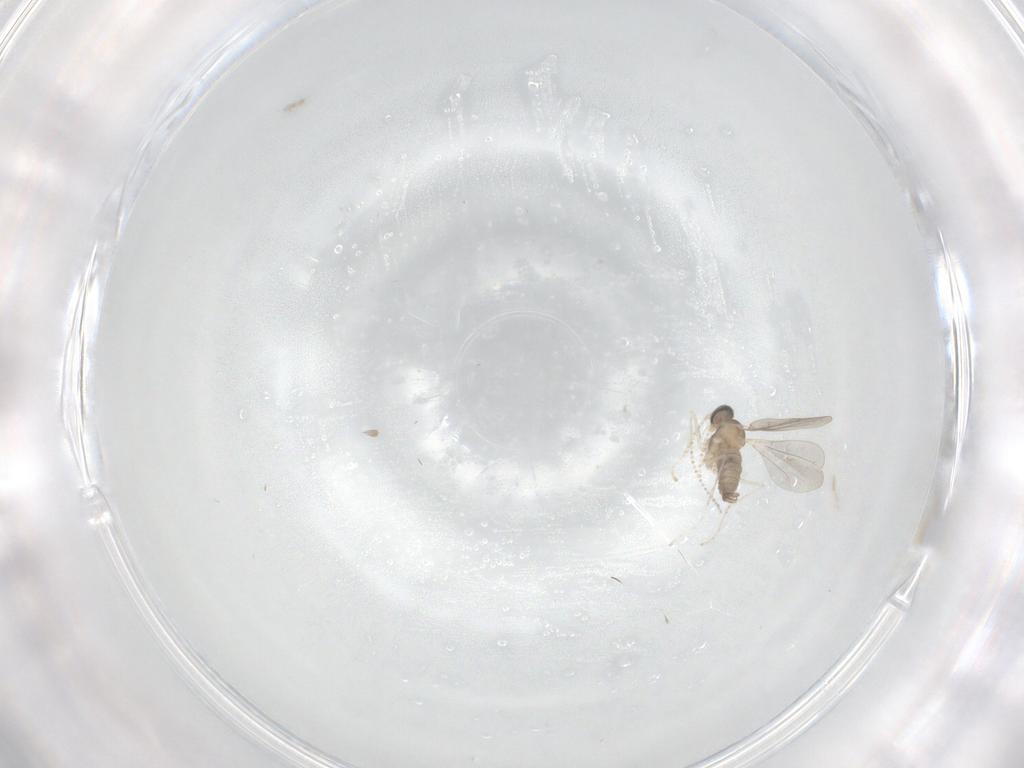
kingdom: Animalia
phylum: Arthropoda
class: Insecta
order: Diptera
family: Cecidomyiidae
